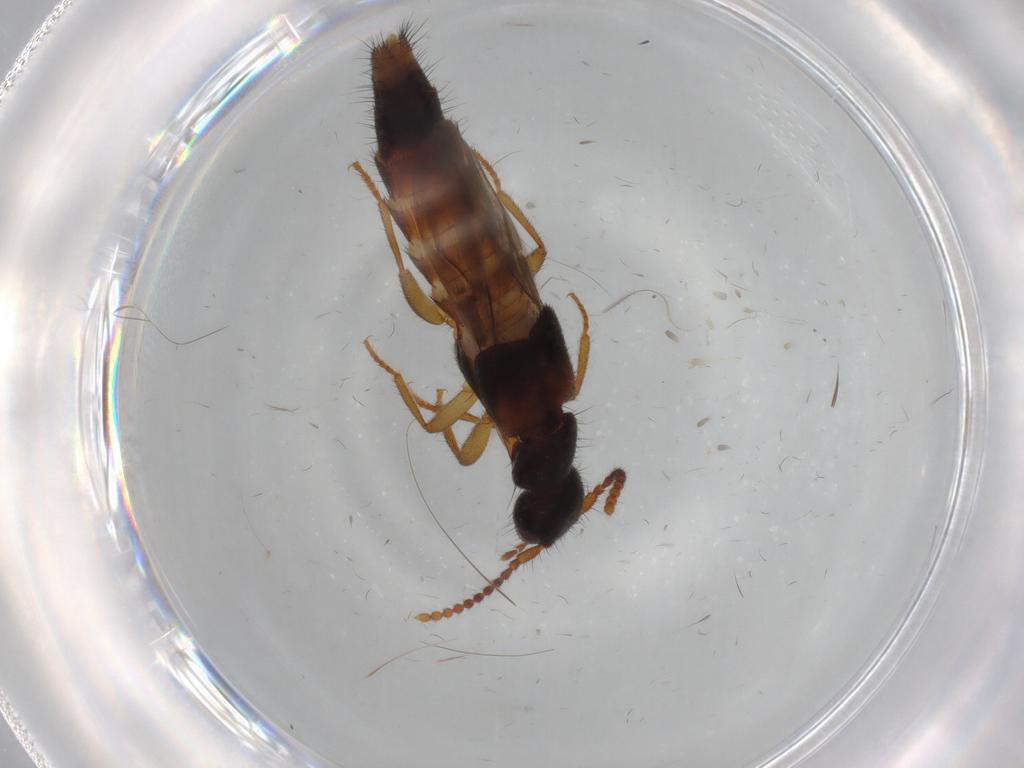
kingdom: Animalia
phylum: Arthropoda
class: Insecta
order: Coleoptera
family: Staphylinidae
